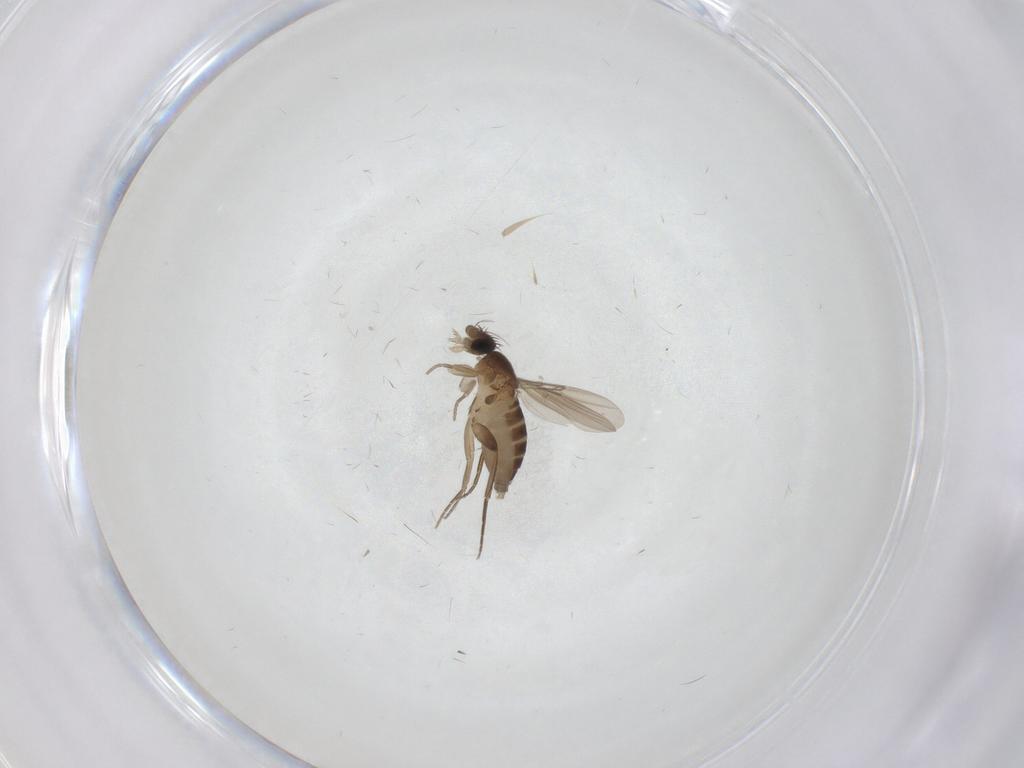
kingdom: Animalia
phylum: Arthropoda
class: Insecta
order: Diptera
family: Phoridae
